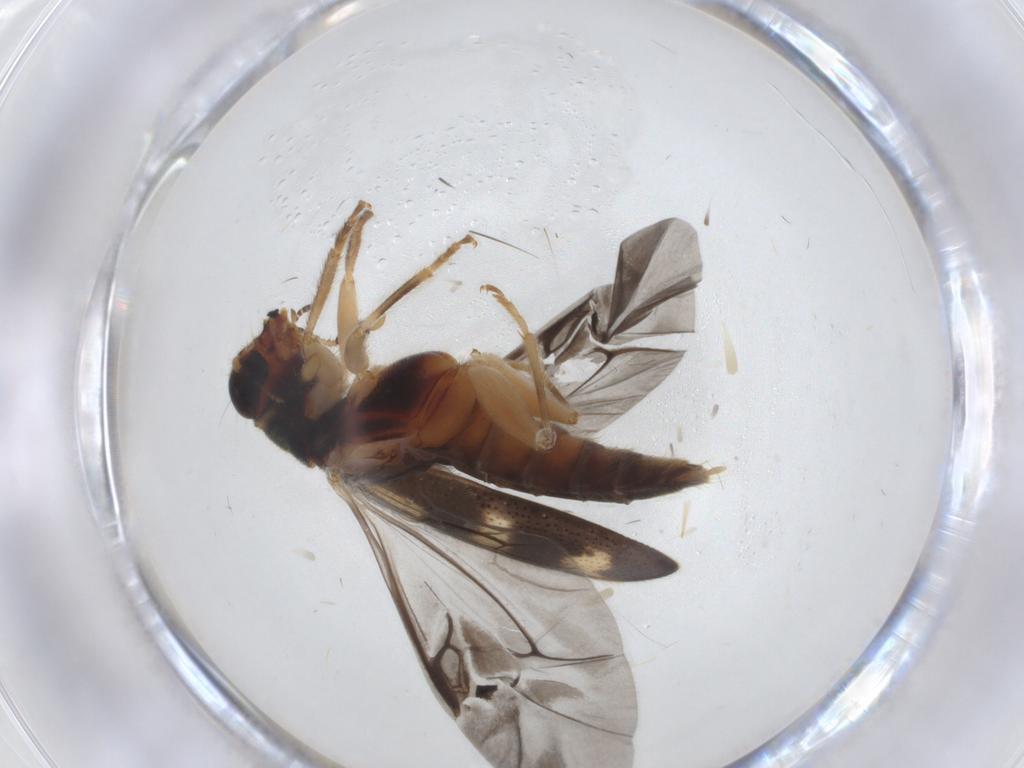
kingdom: Animalia
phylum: Arthropoda
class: Insecta
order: Coleoptera
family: Cleridae
